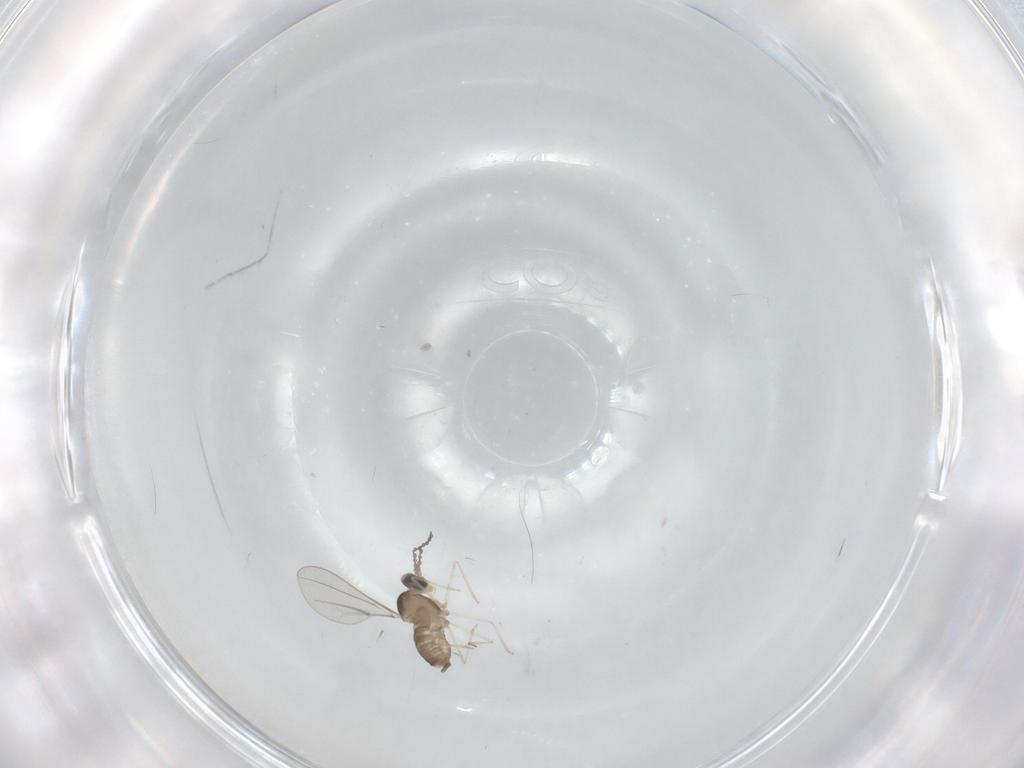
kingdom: Animalia
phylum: Arthropoda
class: Insecta
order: Diptera
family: Cecidomyiidae
